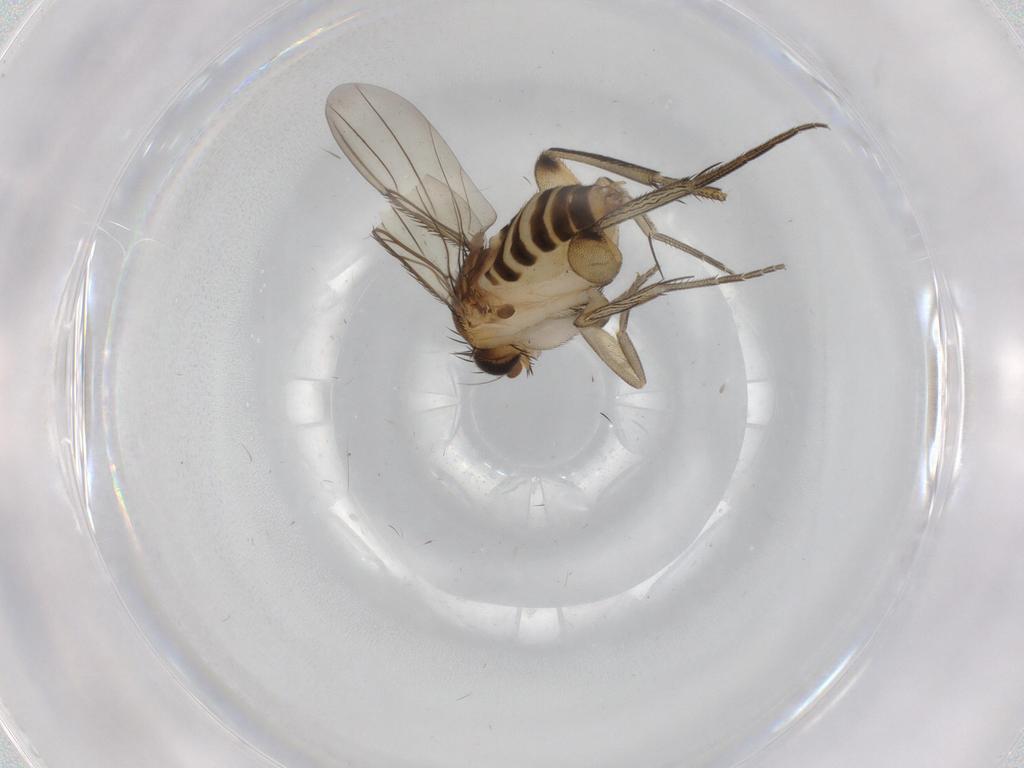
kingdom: Animalia
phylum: Arthropoda
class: Insecta
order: Diptera
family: Phoridae
